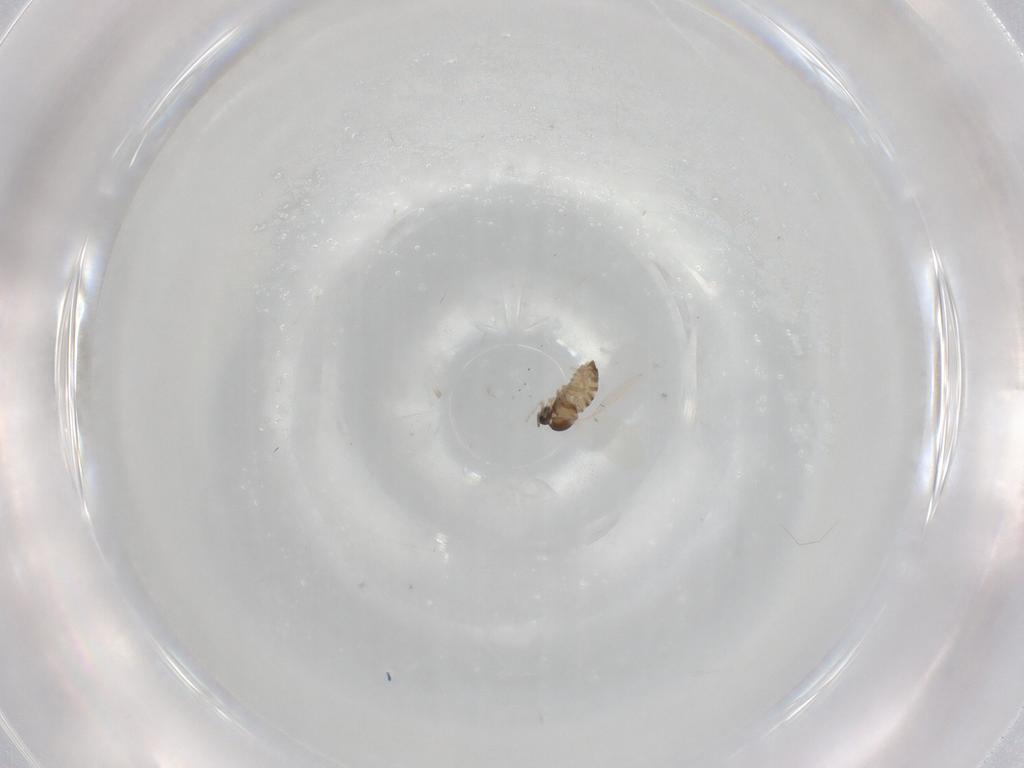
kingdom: Animalia
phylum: Arthropoda
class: Insecta
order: Diptera
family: Cecidomyiidae
